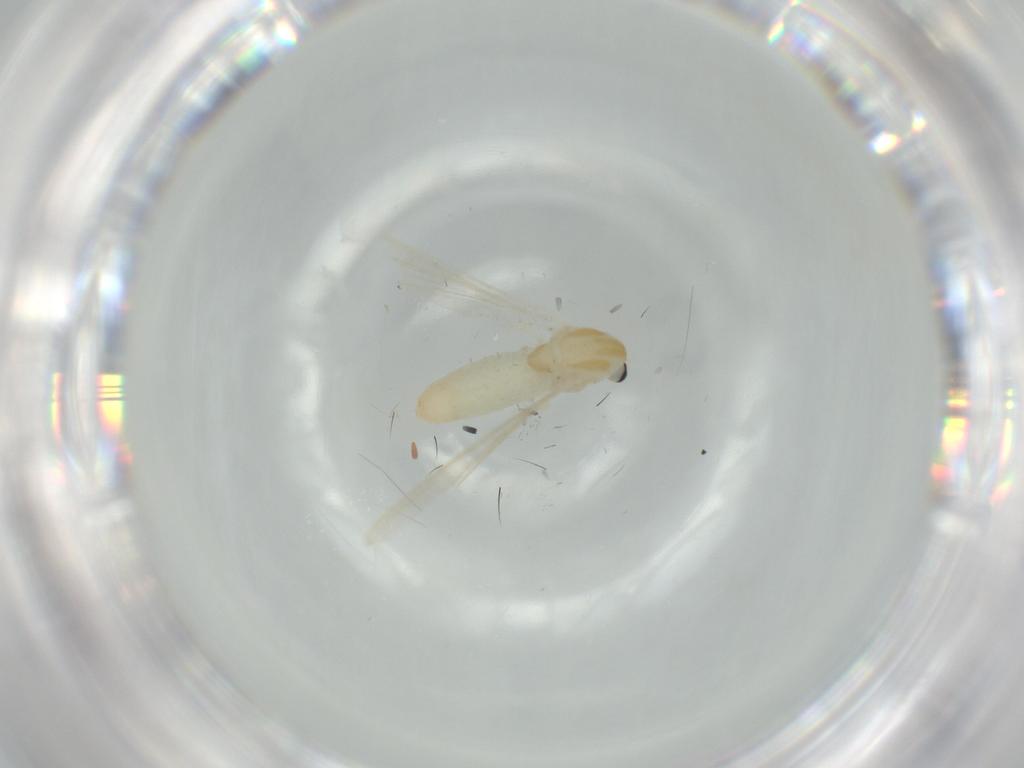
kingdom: Animalia
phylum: Arthropoda
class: Insecta
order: Diptera
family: Chironomidae
